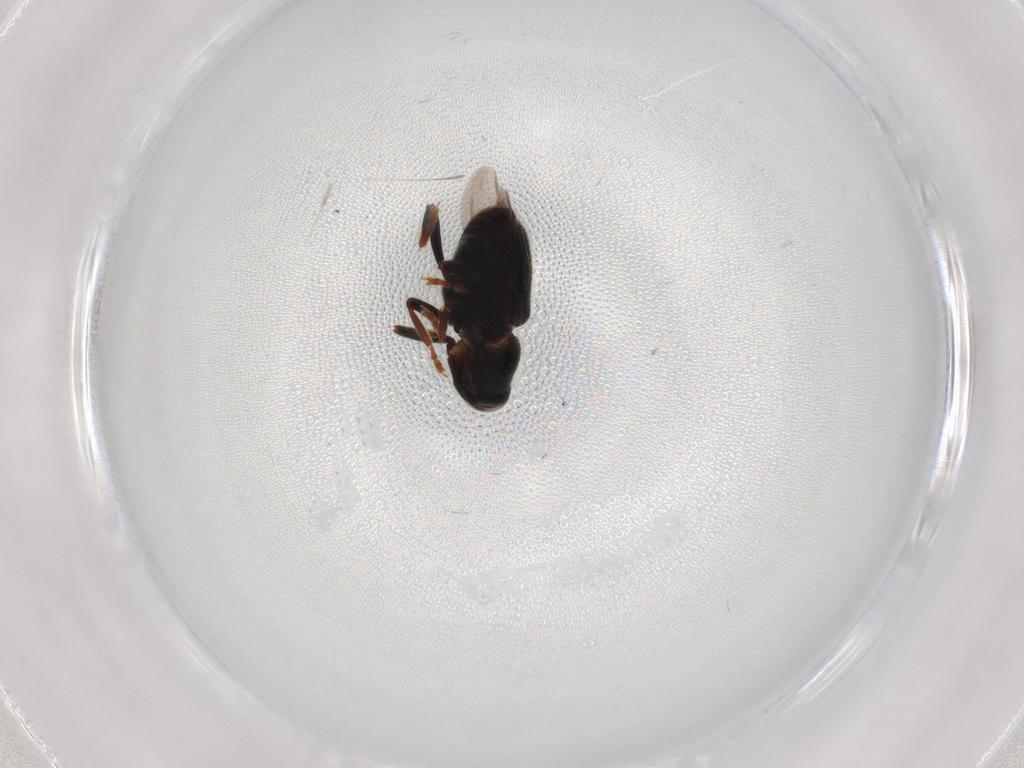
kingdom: Animalia
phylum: Arthropoda
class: Insecta
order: Coleoptera
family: Curculionidae
